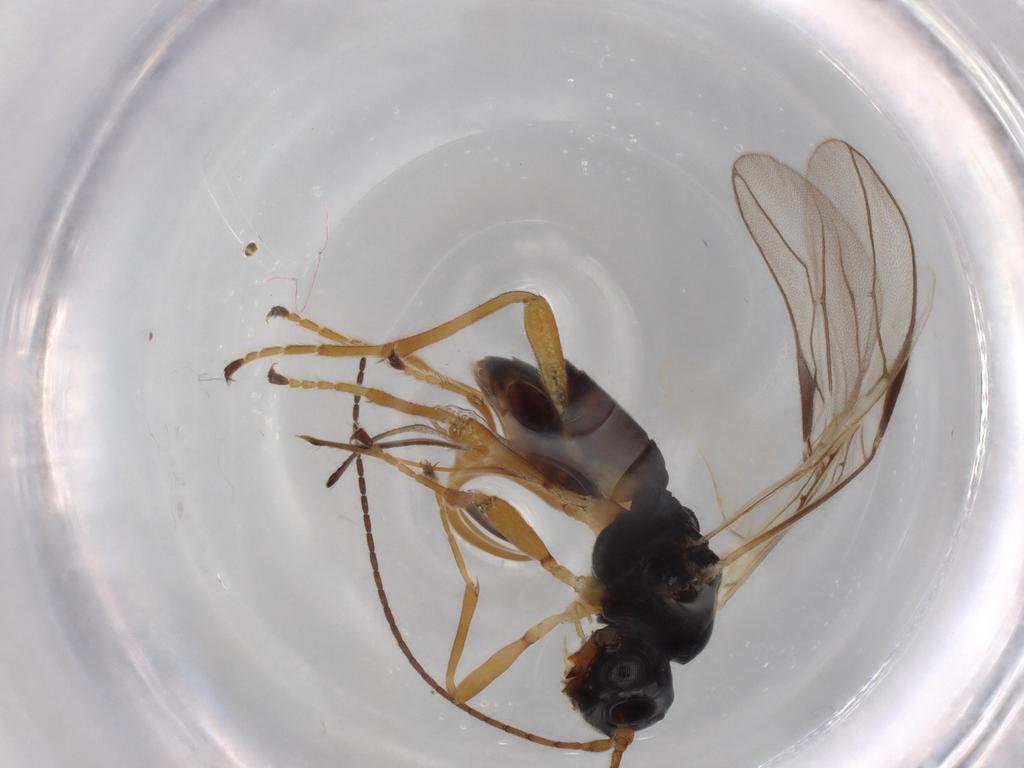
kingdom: Animalia
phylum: Arthropoda
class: Insecta
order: Hymenoptera
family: Braconidae
